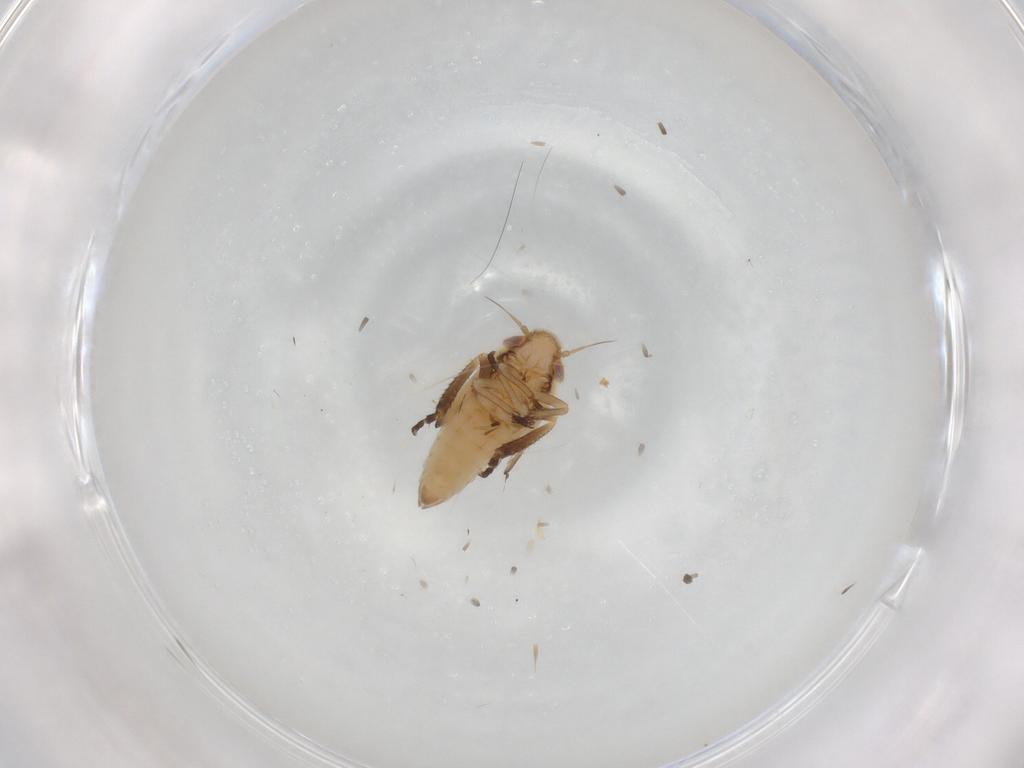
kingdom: Animalia
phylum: Arthropoda
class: Insecta
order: Hemiptera
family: Cicadellidae
